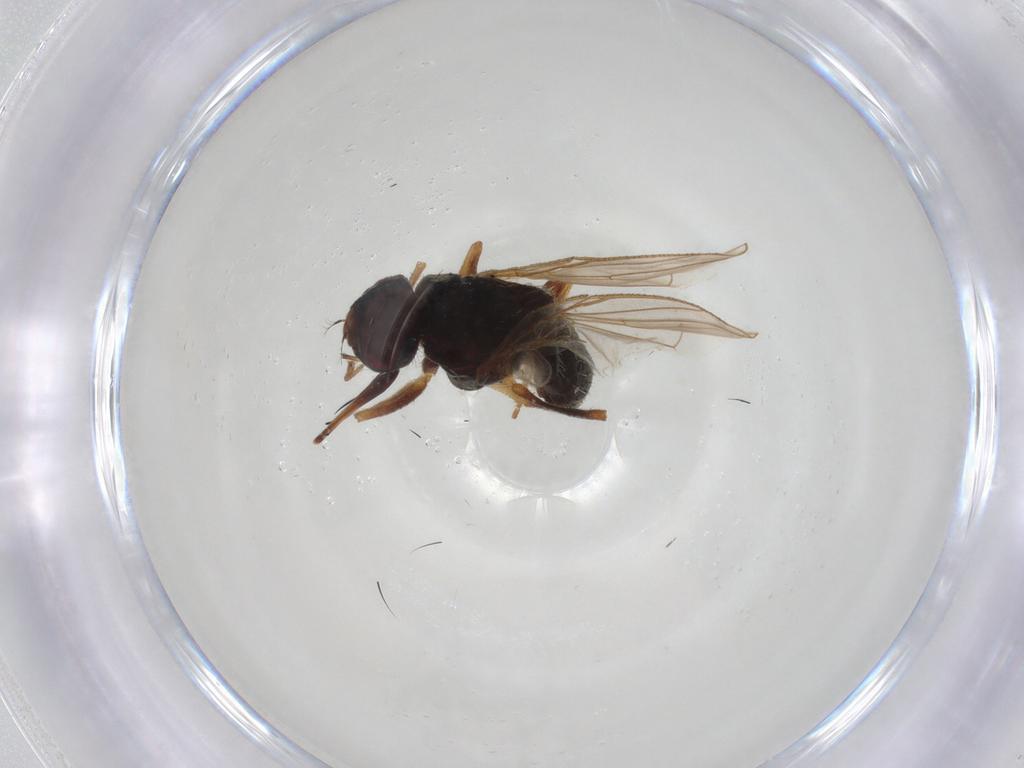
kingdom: Animalia
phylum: Arthropoda
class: Insecta
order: Diptera
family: Muscidae
